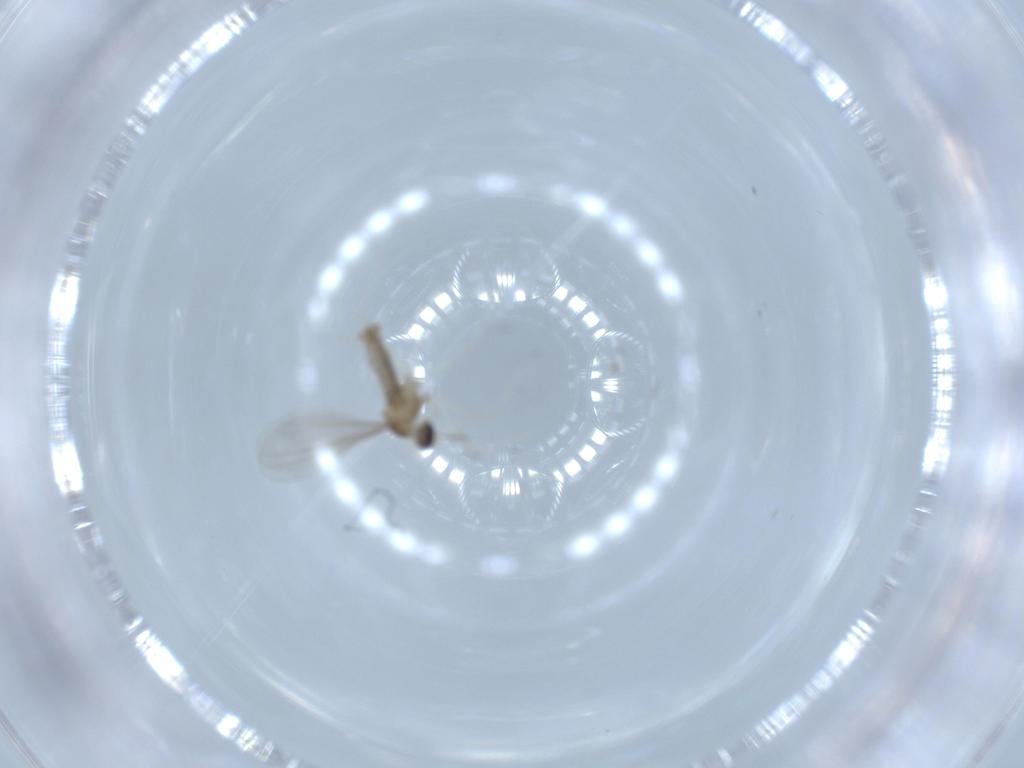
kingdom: Animalia
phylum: Arthropoda
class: Insecta
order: Diptera
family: Cecidomyiidae
